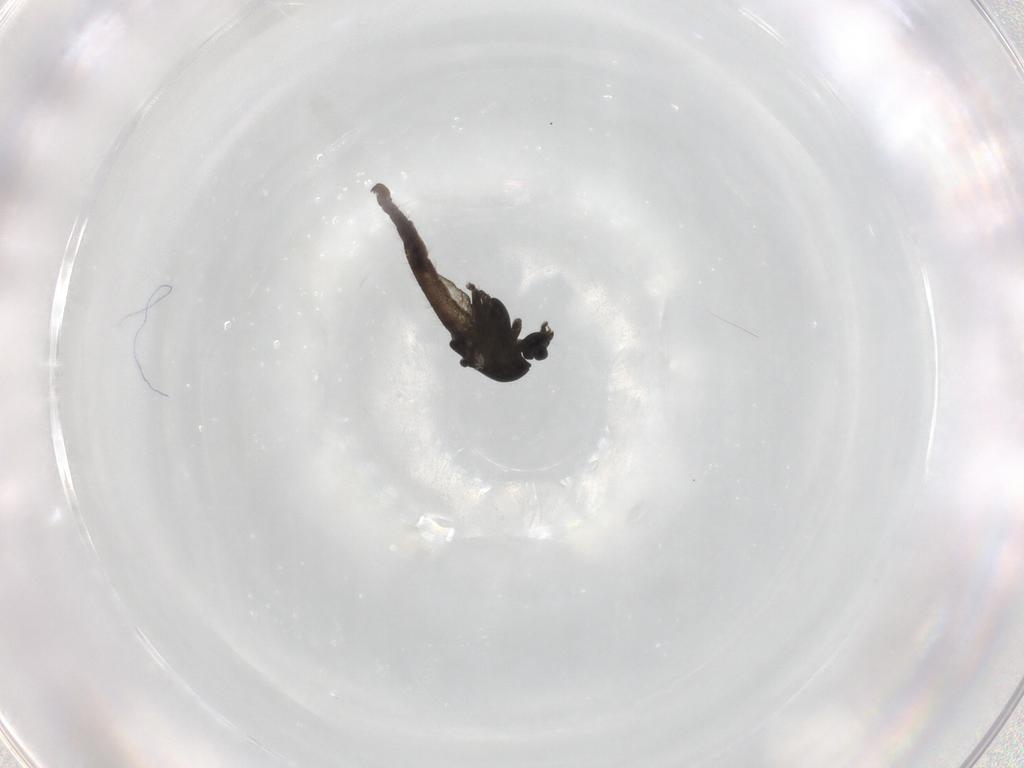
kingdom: Animalia
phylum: Arthropoda
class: Insecta
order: Diptera
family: Chironomidae
